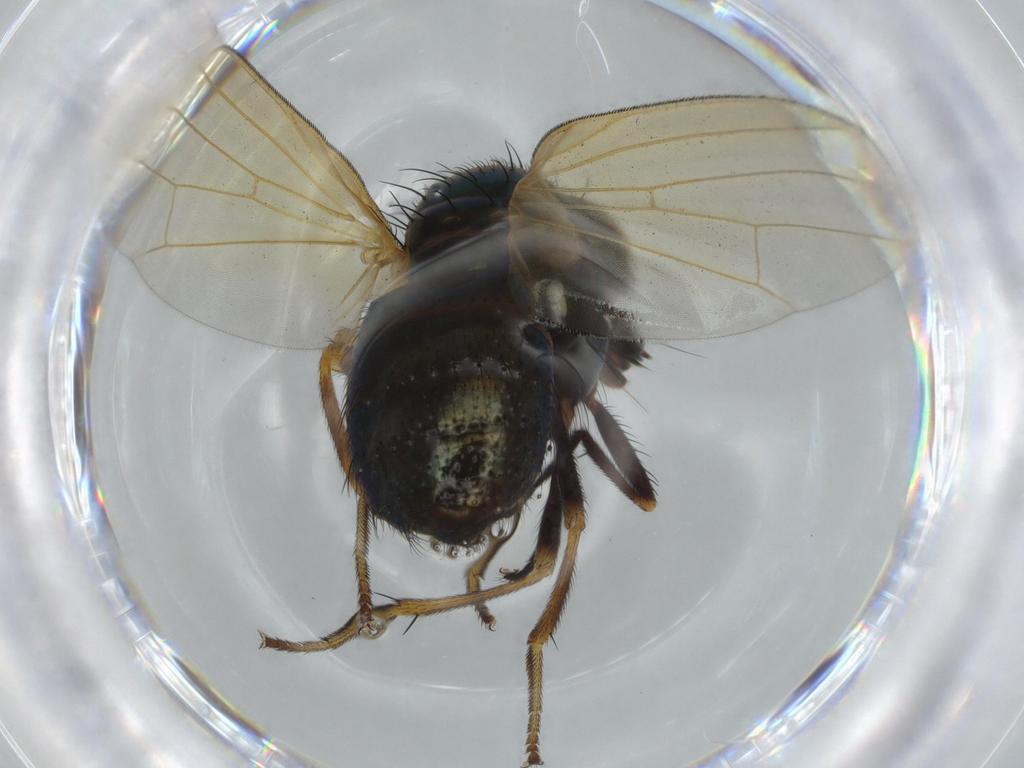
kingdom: Animalia
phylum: Arthropoda
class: Insecta
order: Diptera
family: Lauxaniidae
